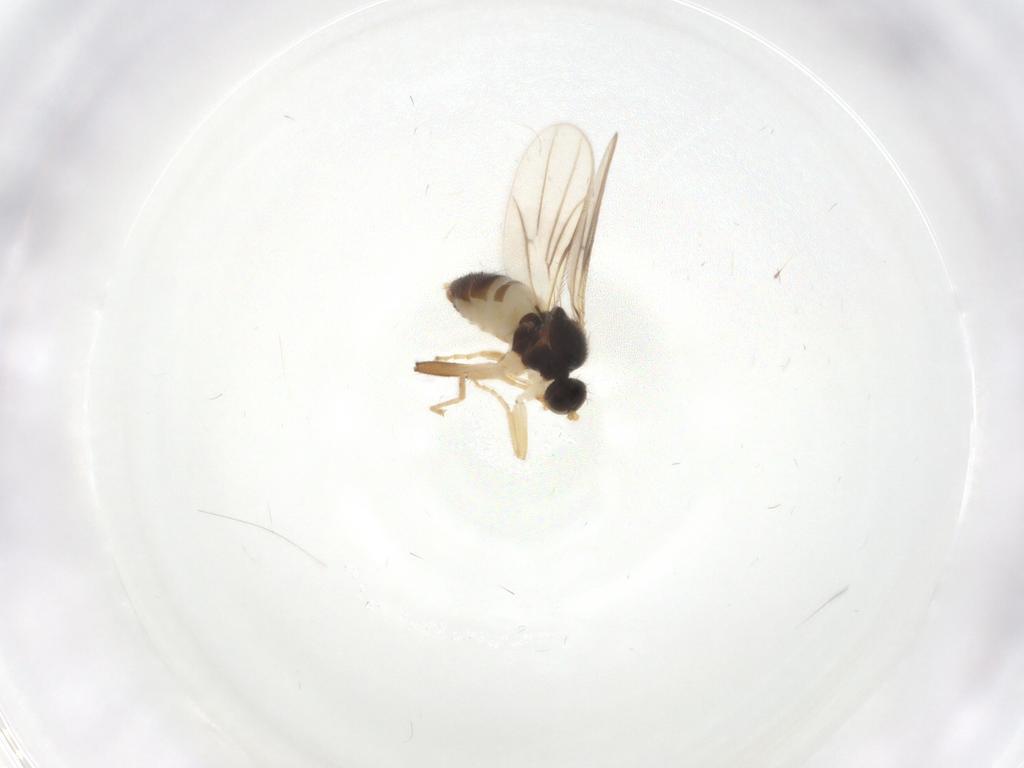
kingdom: Animalia
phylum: Arthropoda
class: Insecta
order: Diptera
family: Hybotidae
